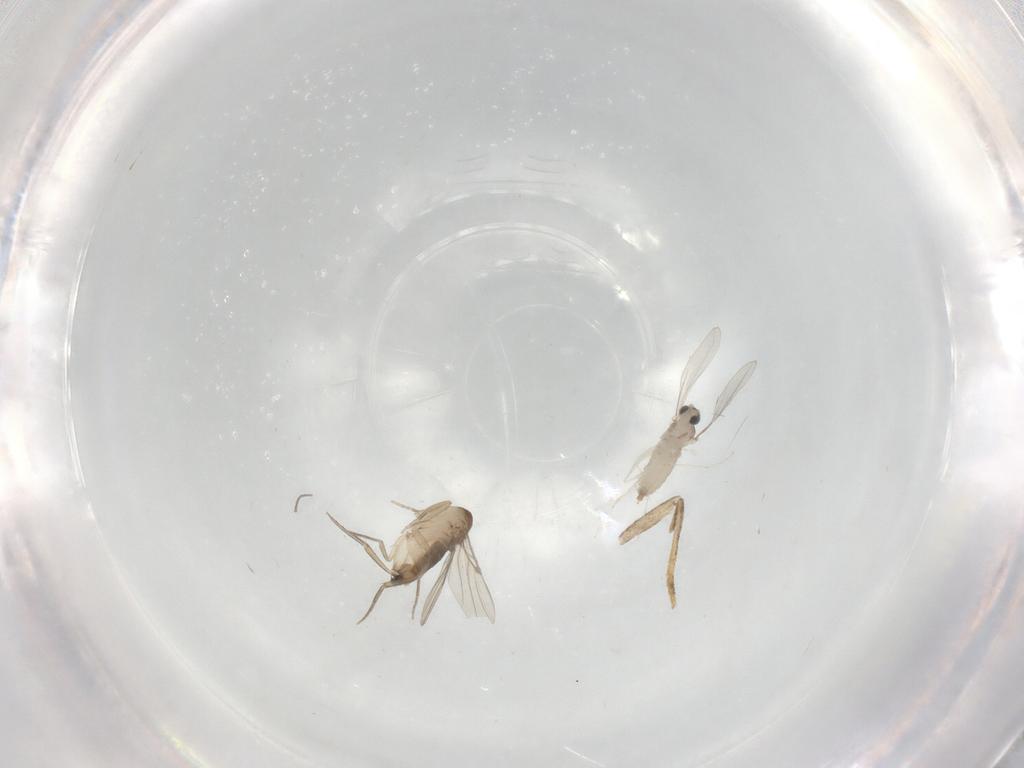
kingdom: Animalia
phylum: Arthropoda
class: Insecta
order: Lepidoptera
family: Tineidae
